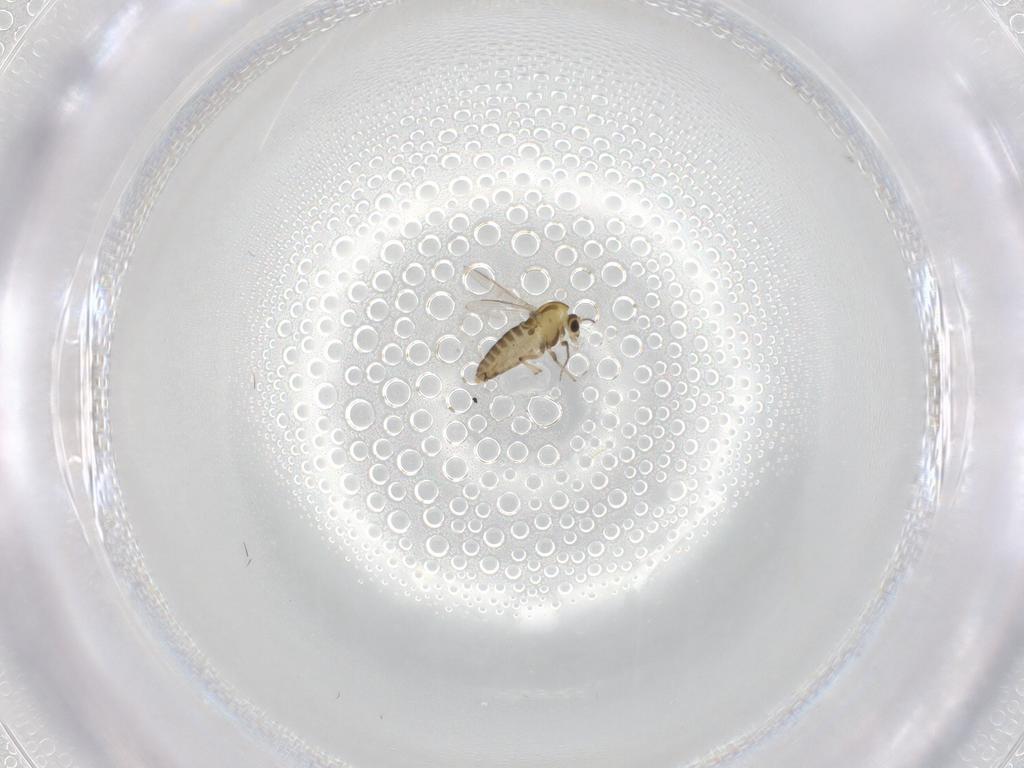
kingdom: Animalia
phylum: Arthropoda
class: Insecta
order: Diptera
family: Chironomidae
